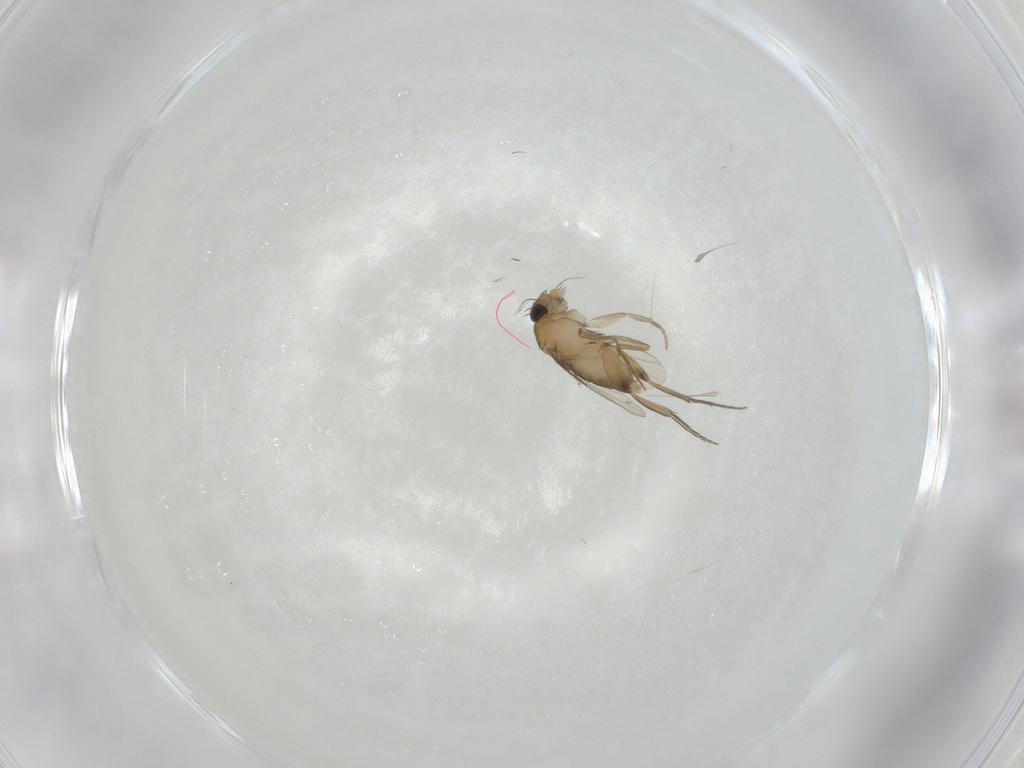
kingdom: Animalia
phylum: Arthropoda
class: Insecta
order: Diptera
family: Phoridae
